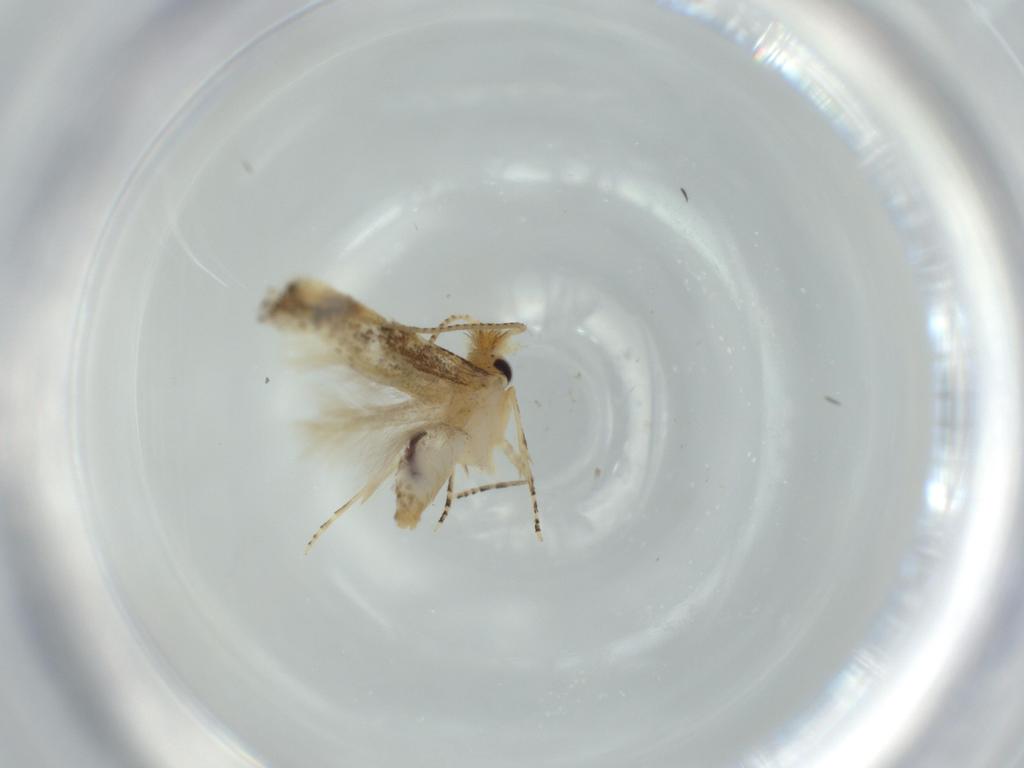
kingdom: Animalia
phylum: Arthropoda
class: Insecta
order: Lepidoptera
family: Bucculatricidae
